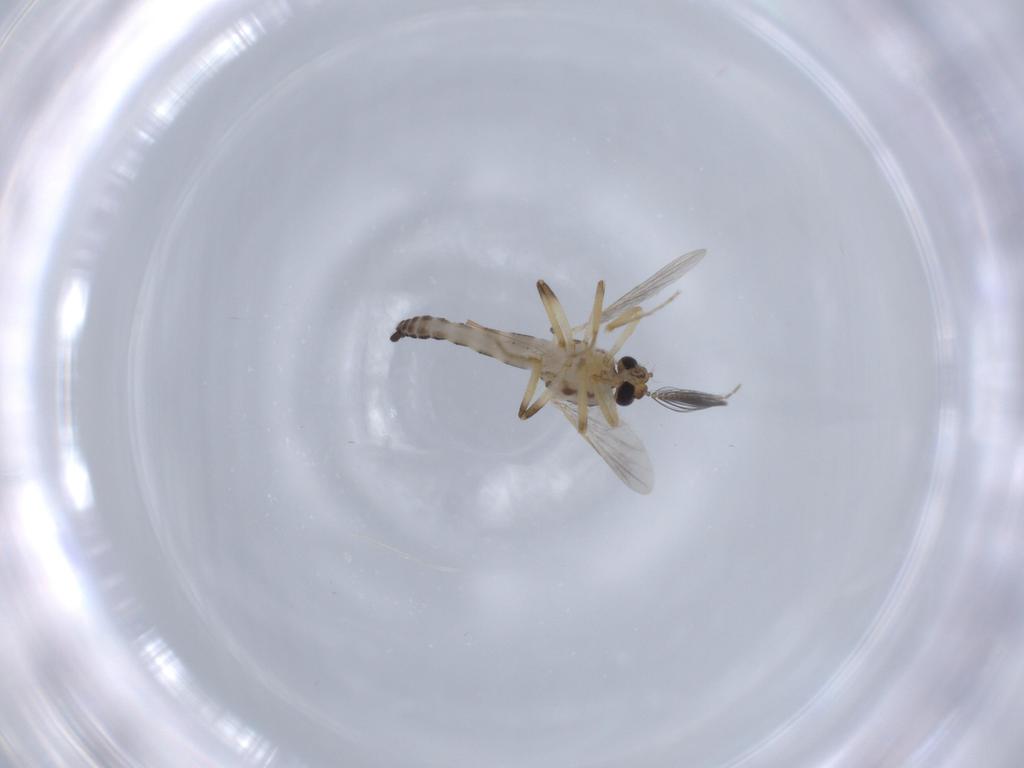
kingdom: Animalia
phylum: Arthropoda
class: Insecta
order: Diptera
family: Ceratopogonidae
